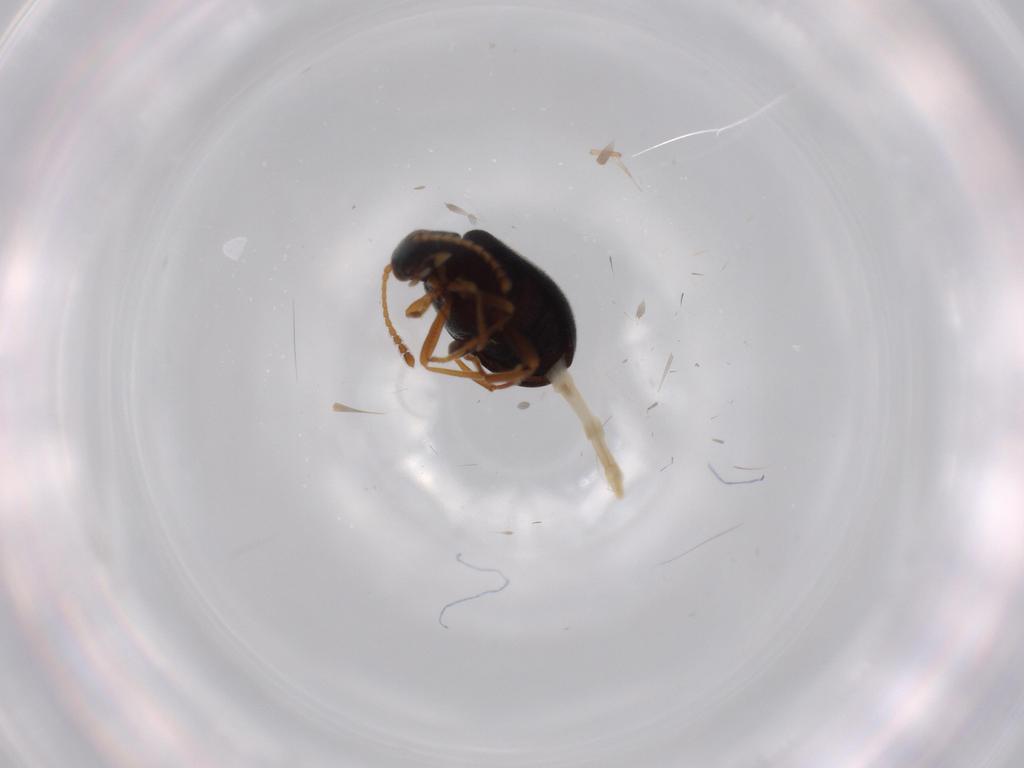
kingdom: Animalia
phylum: Arthropoda
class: Insecta
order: Coleoptera
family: Aderidae
